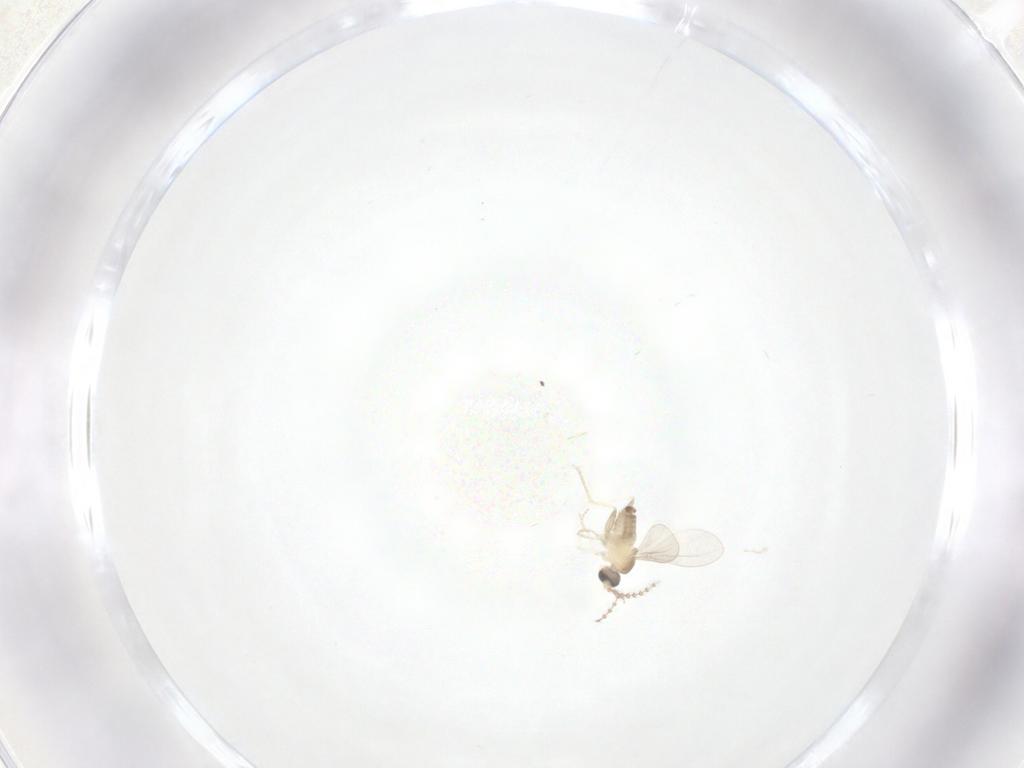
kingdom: Animalia
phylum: Arthropoda
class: Insecta
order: Diptera
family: Cecidomyiidae
